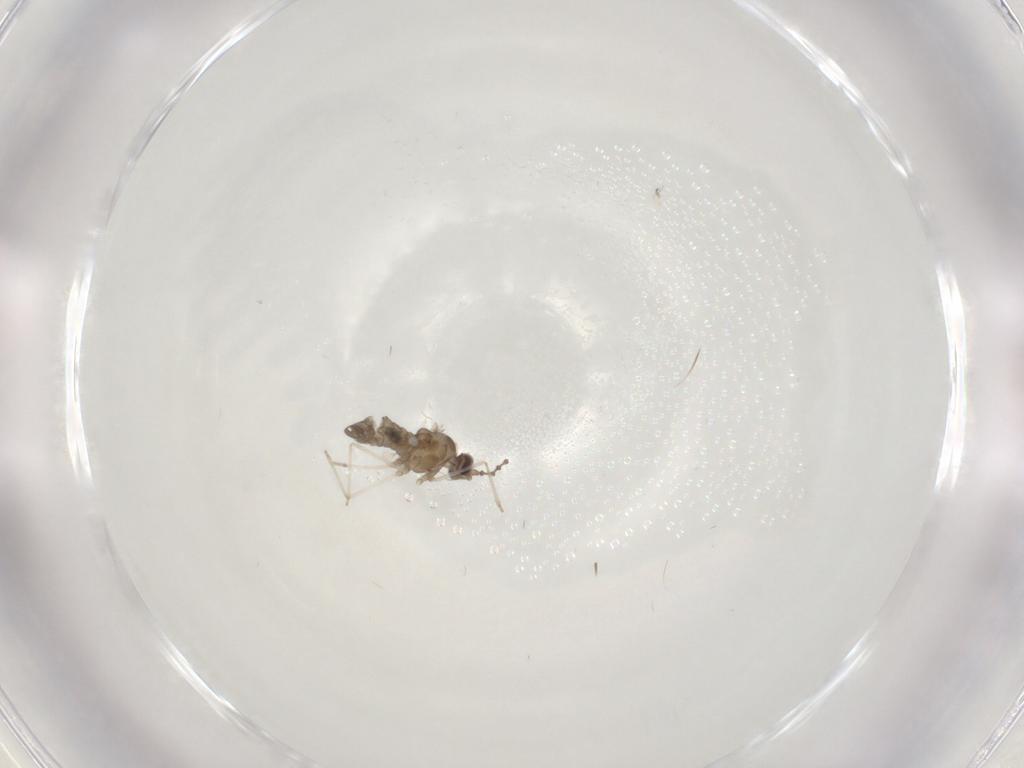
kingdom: Animalia
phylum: Arthropoda
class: Insecta
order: Diptera
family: Cecidomyiidae
